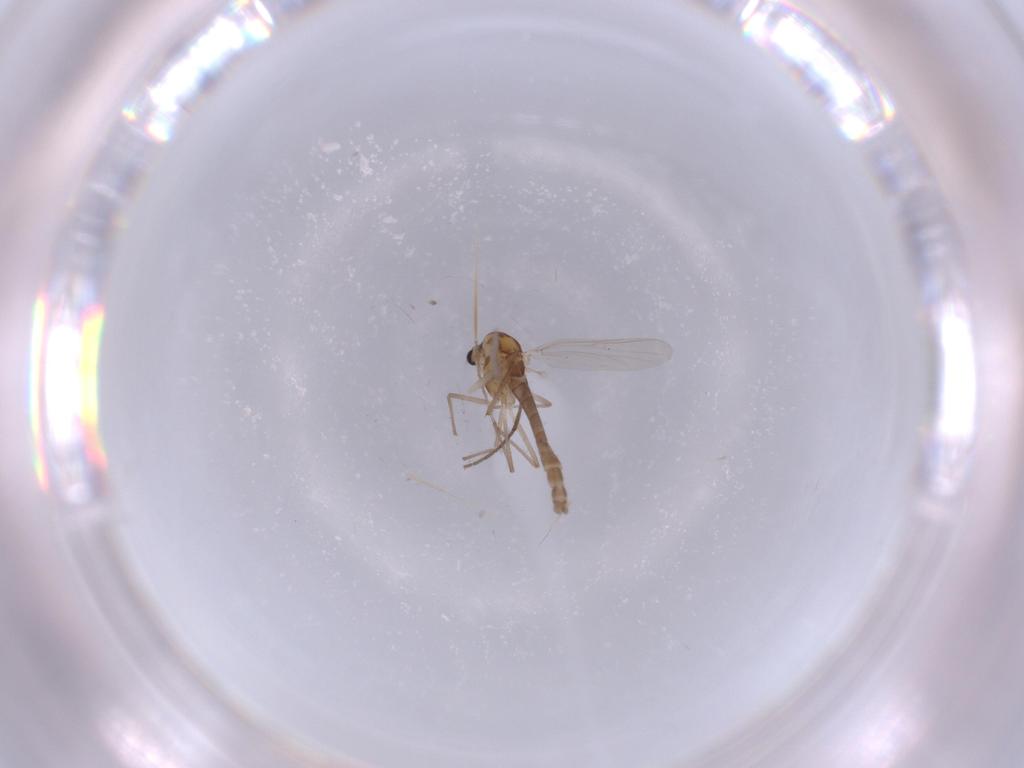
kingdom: Animalia
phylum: Arthropoda
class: Insecta
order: Diptera
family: Chironomidae
